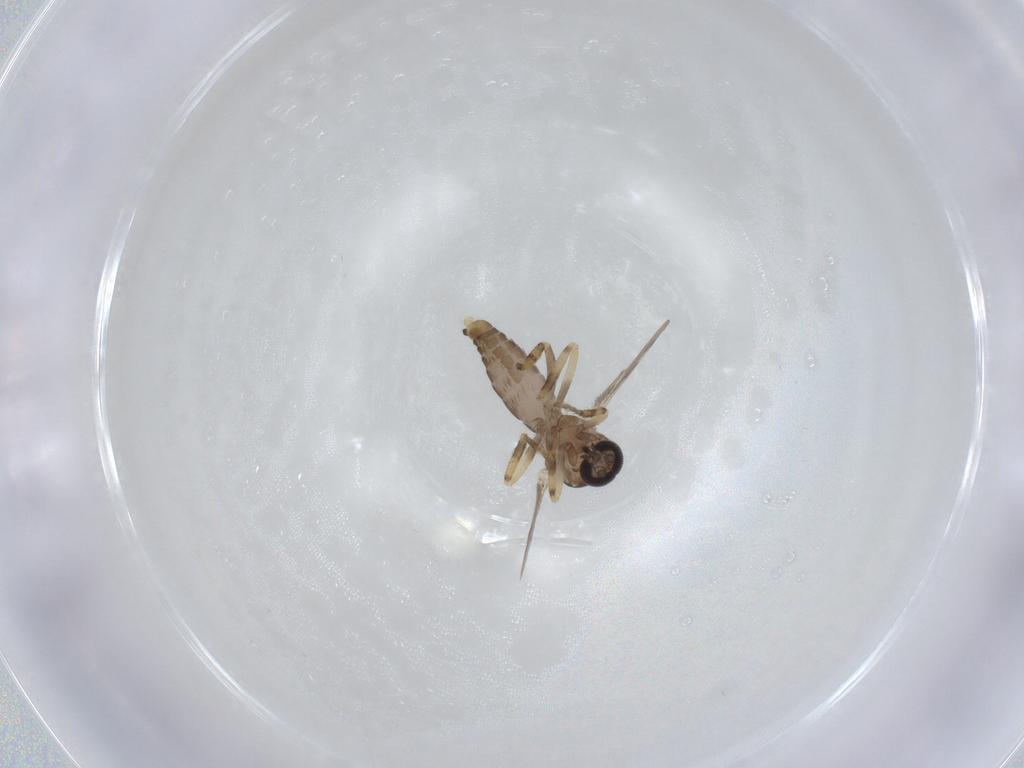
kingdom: Animalia
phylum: Arthropoda
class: Insecta
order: Diptera
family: Ceratopogonidae
